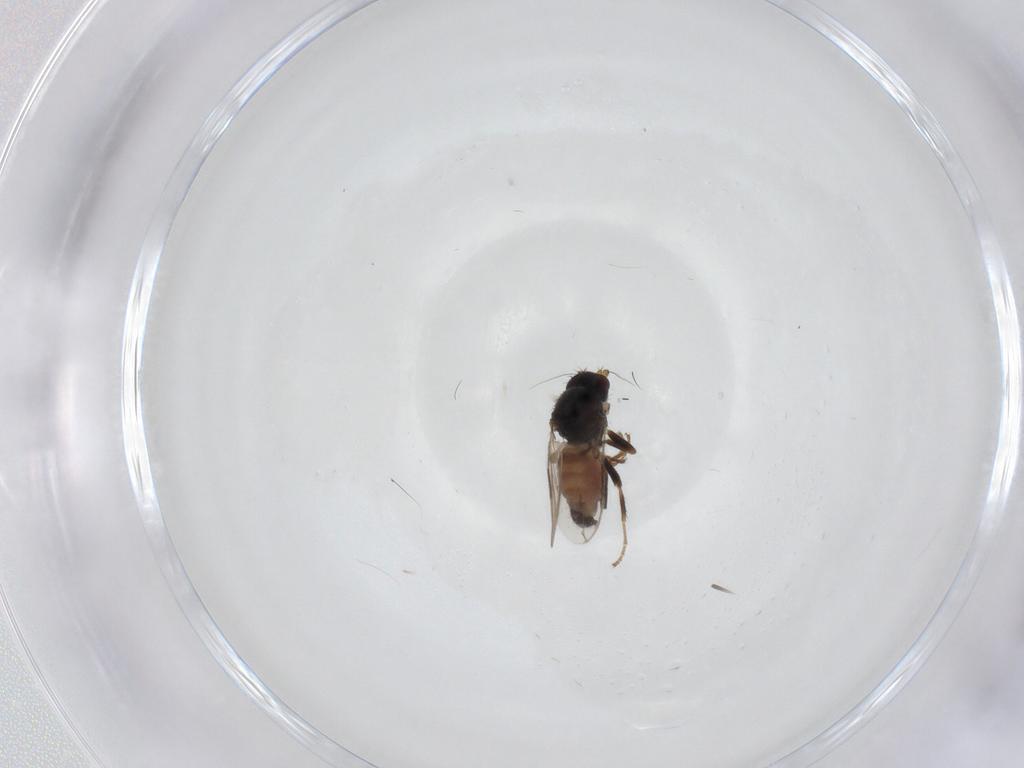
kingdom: Animalia
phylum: Arthropoda
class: Insecta
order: Diptera
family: Sphaeroceridae
